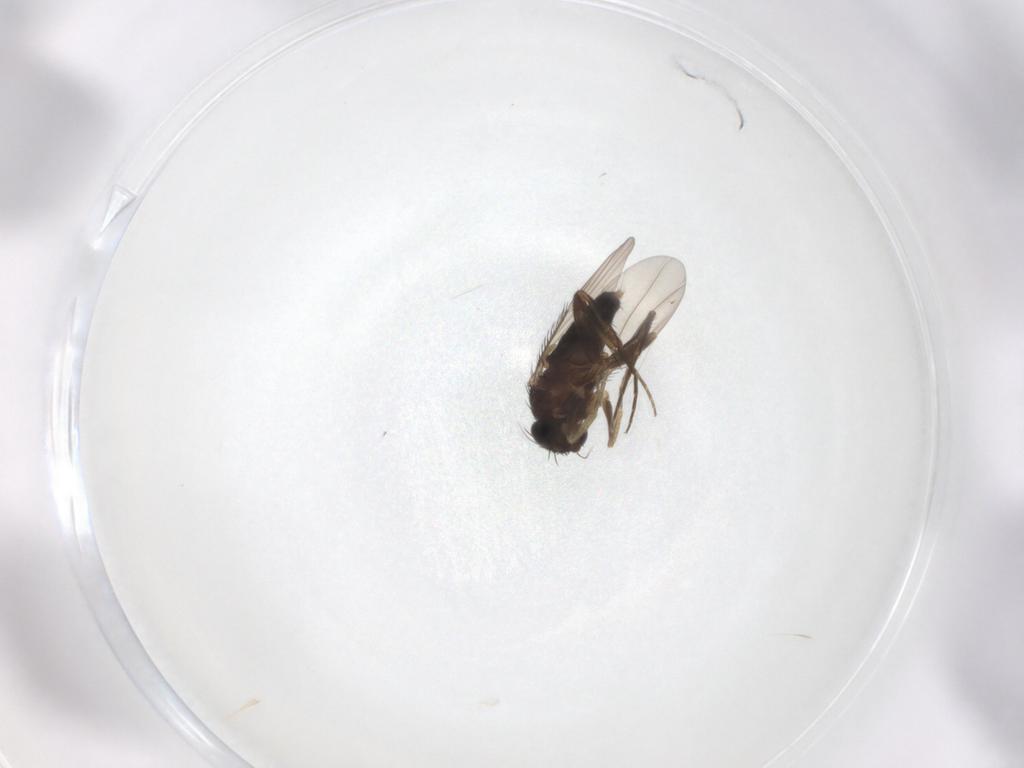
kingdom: Animalia
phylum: Arthropoda
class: Insecta
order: Diptera
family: Phoridae
